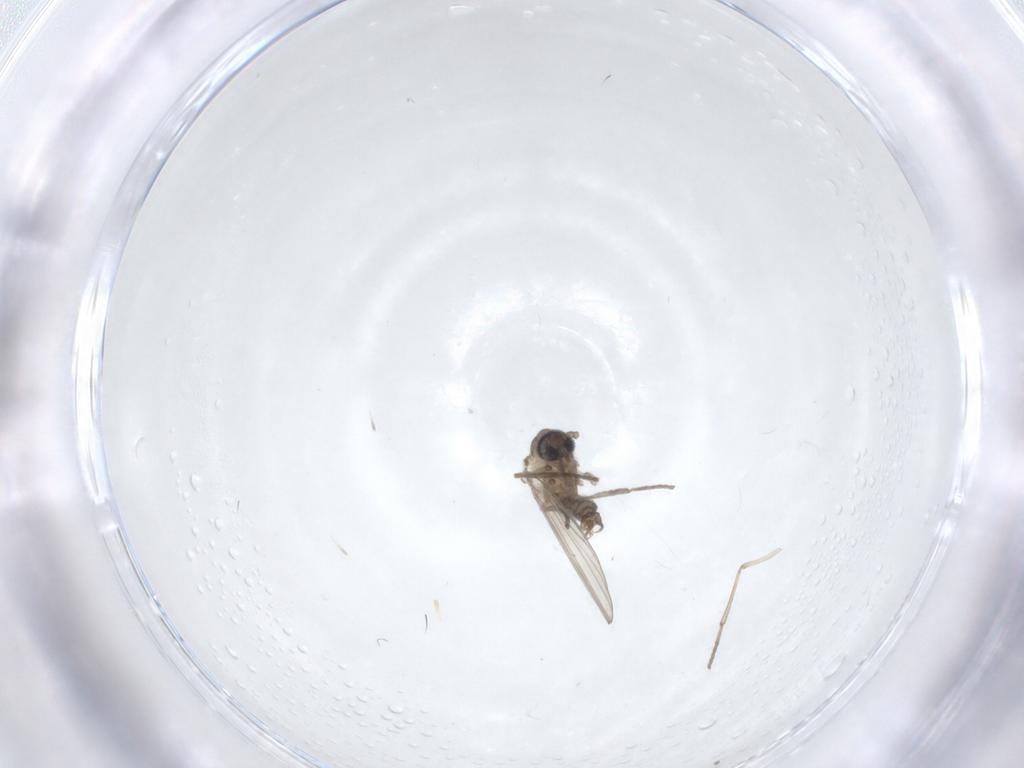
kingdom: Animalia
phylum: Arthropoda
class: Insecta
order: Diptera
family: Psychodidae
